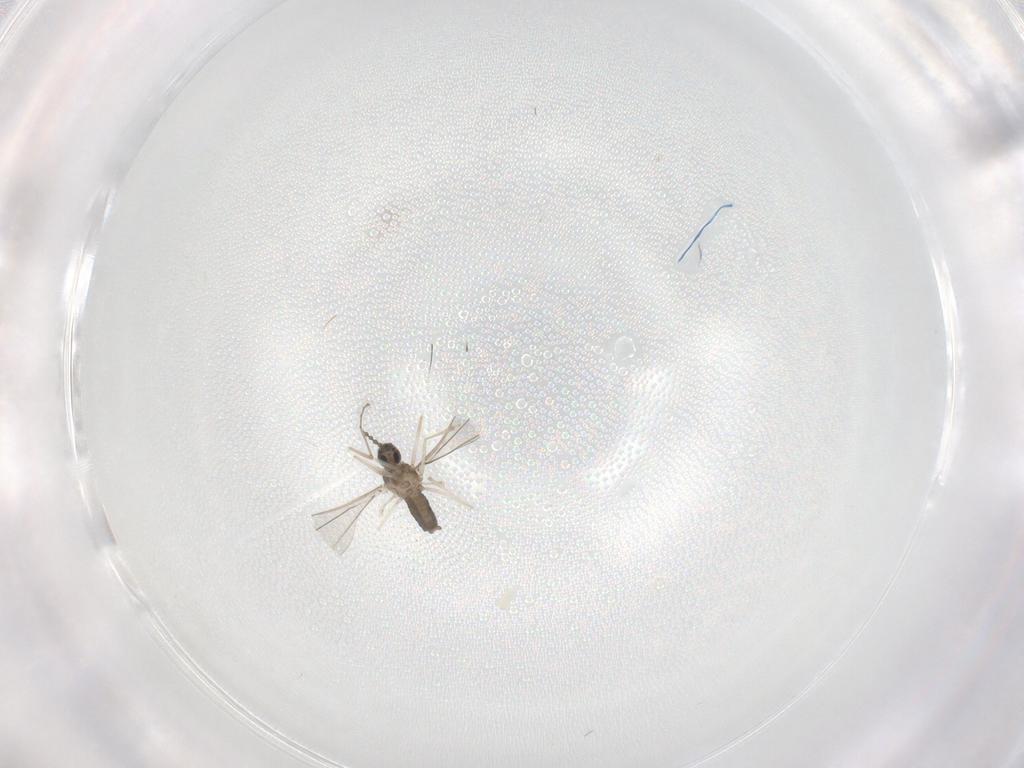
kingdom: Animalia
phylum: Arthropoda
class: Insecta
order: Diptera
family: Cecidomyiidae
